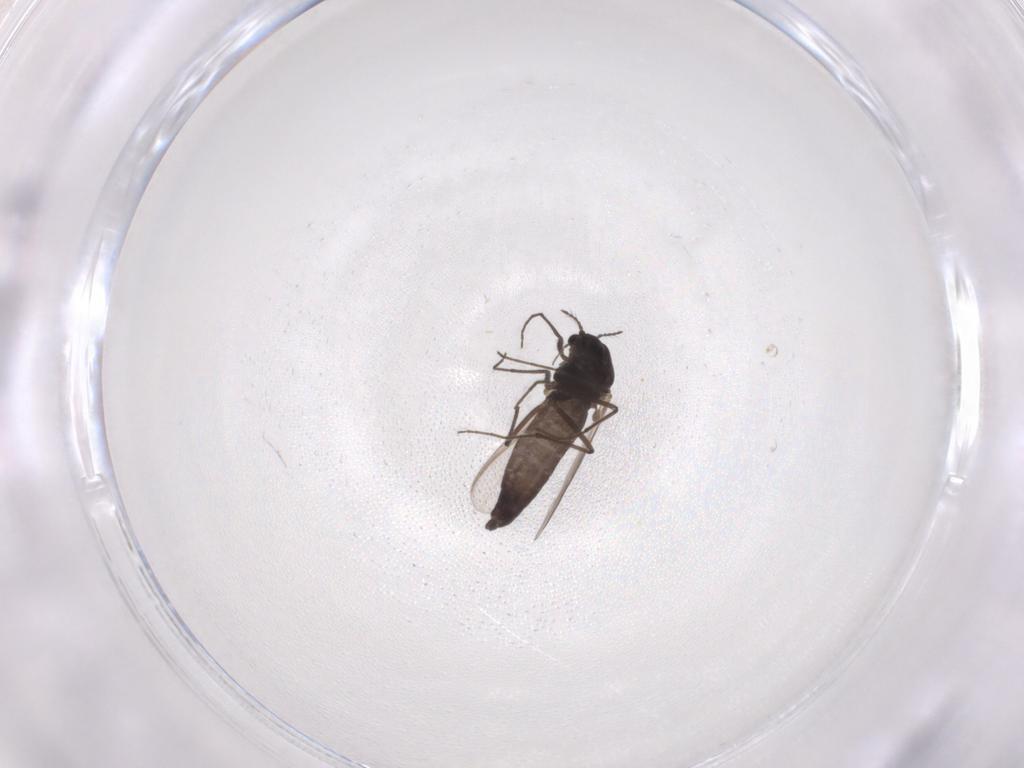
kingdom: Animalia
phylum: Arthropoda
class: Insecta
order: Diptera
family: Chironomidae
